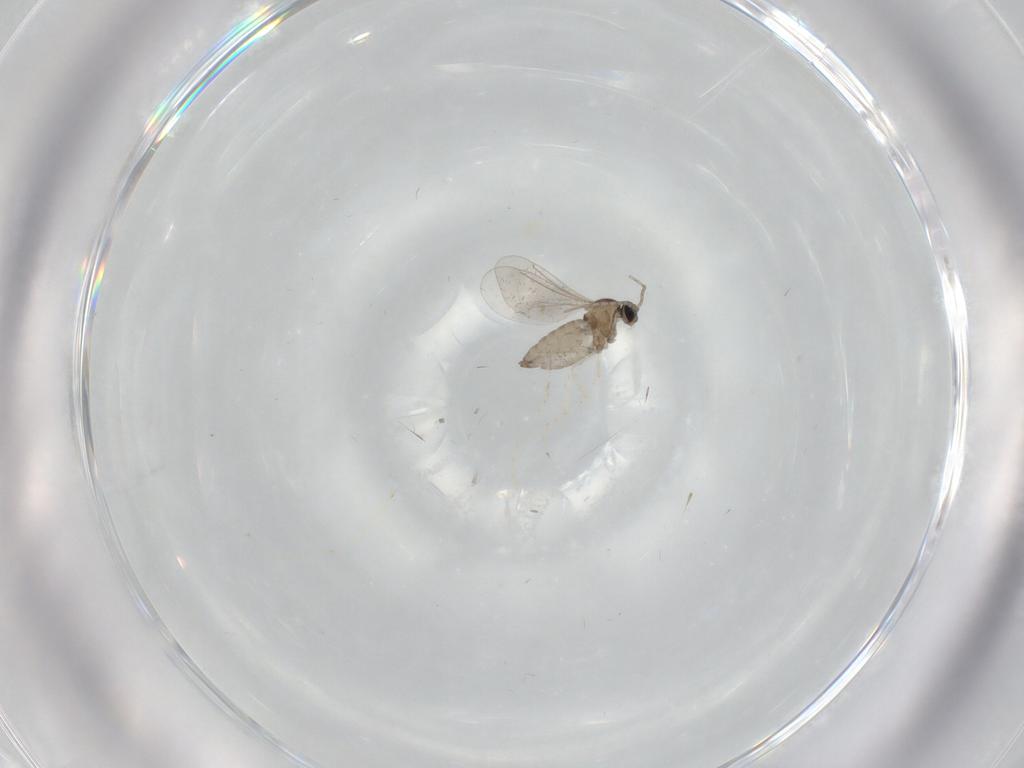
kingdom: Animalia
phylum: Arthropoda
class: Insecta
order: Diptera
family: Cecidomyiidae
